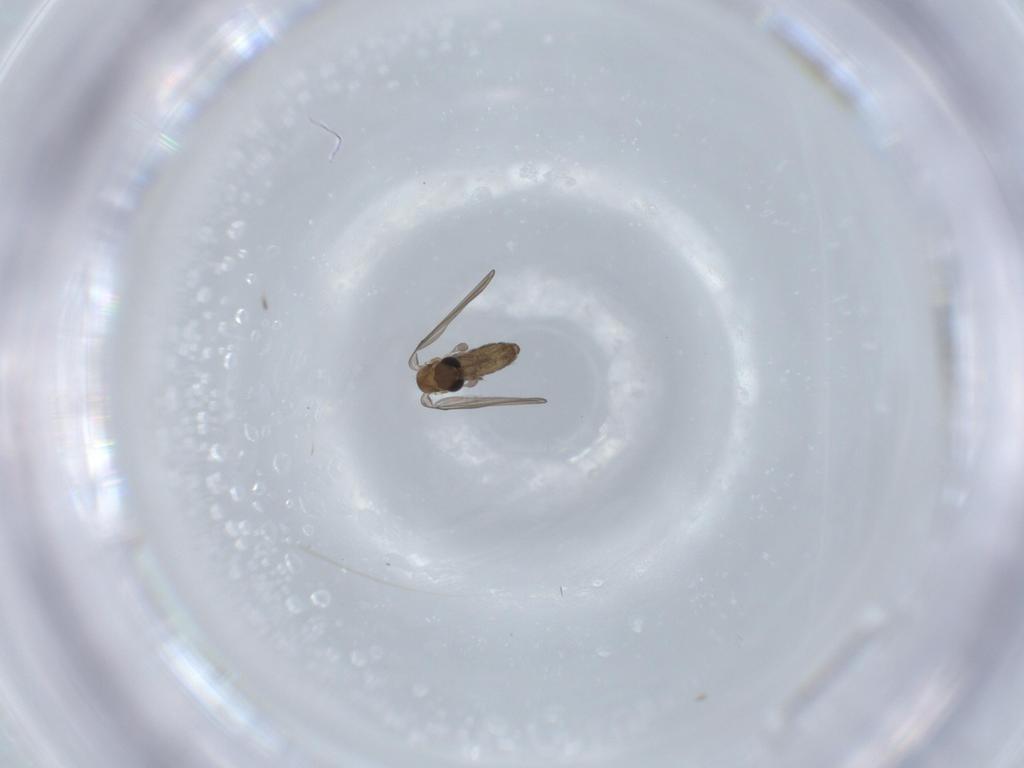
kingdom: Animalia
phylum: Arthropoda
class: Insecta
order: Diptera
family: Psychodidae
